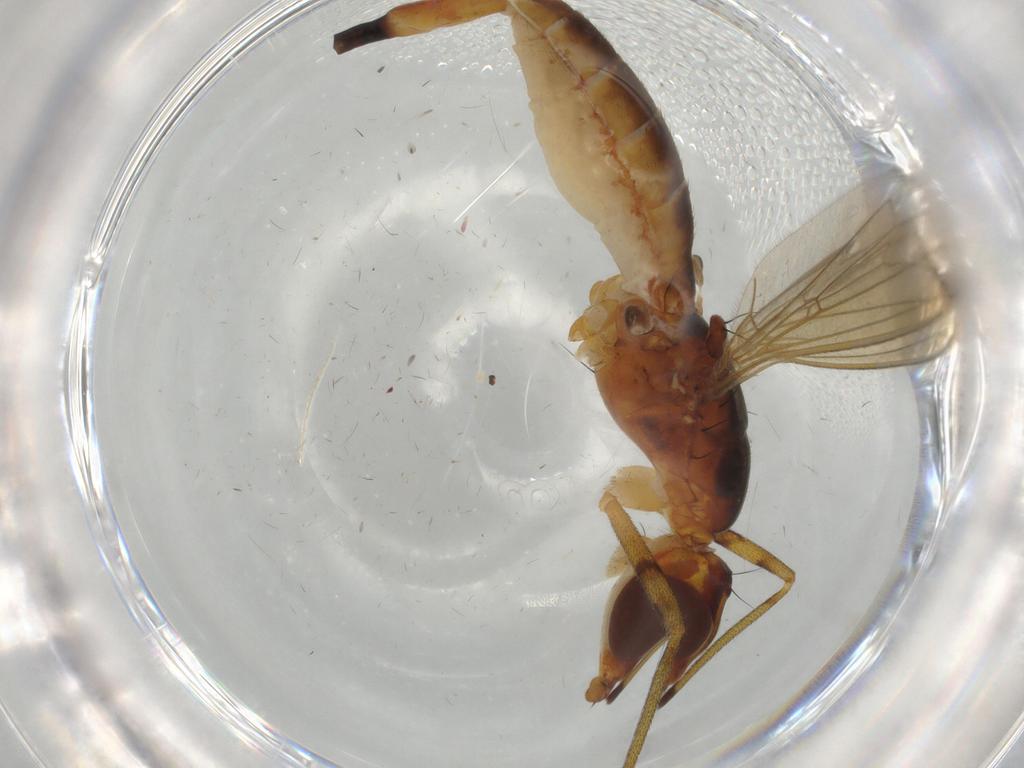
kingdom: Animalia
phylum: Arthropoda
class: Insecta
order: Diptera
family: Micropezidae
